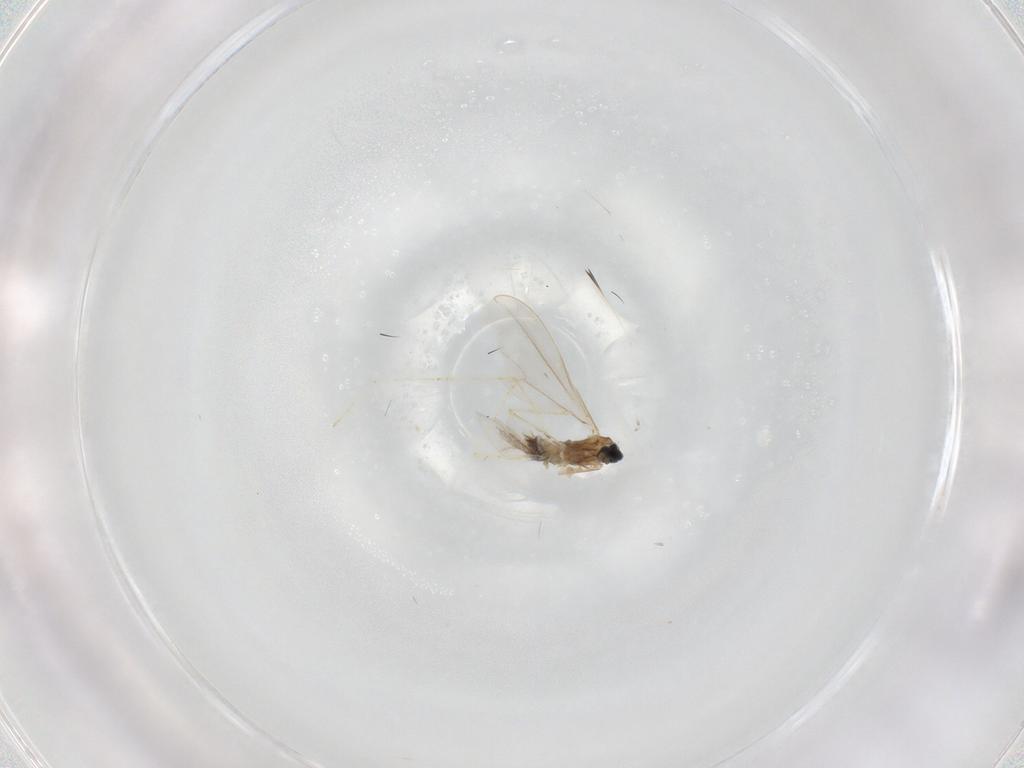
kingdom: Animalia
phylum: Arthropoda
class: Insecta
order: Diptera
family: Cecidomyiidae
